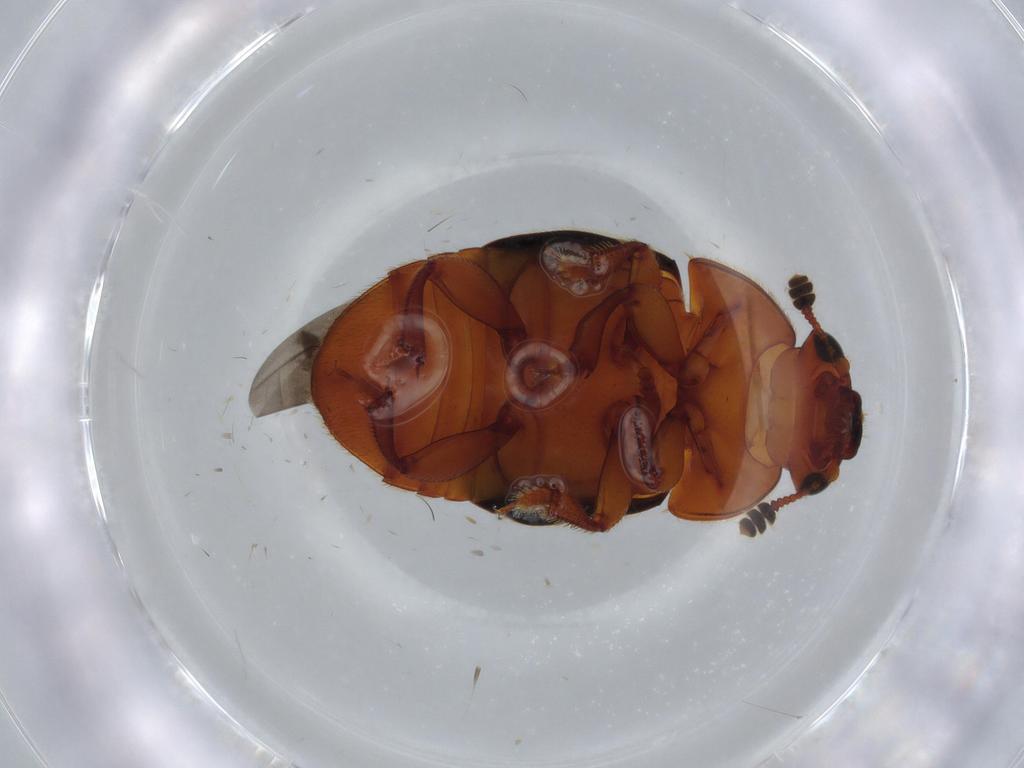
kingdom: Animalia
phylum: Arthropoda
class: Insecta
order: Coleoptera
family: Nitidulidae
